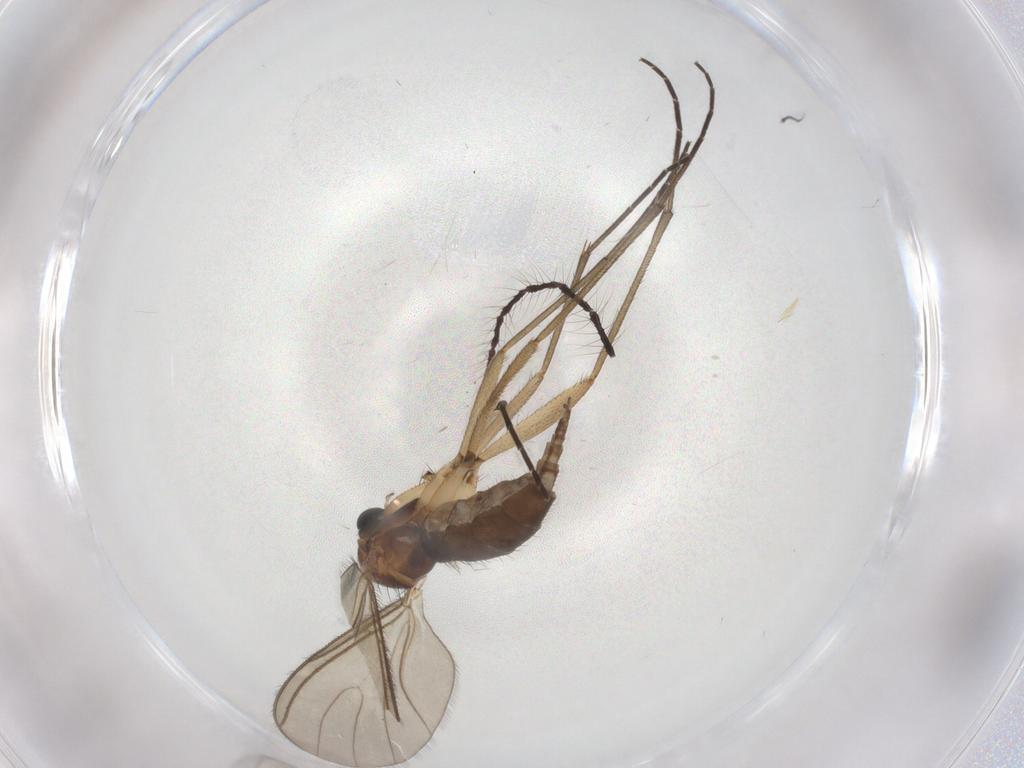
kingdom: Animalia
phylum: Arthropoda
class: Insecta
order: Diptera
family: Sciaridae
